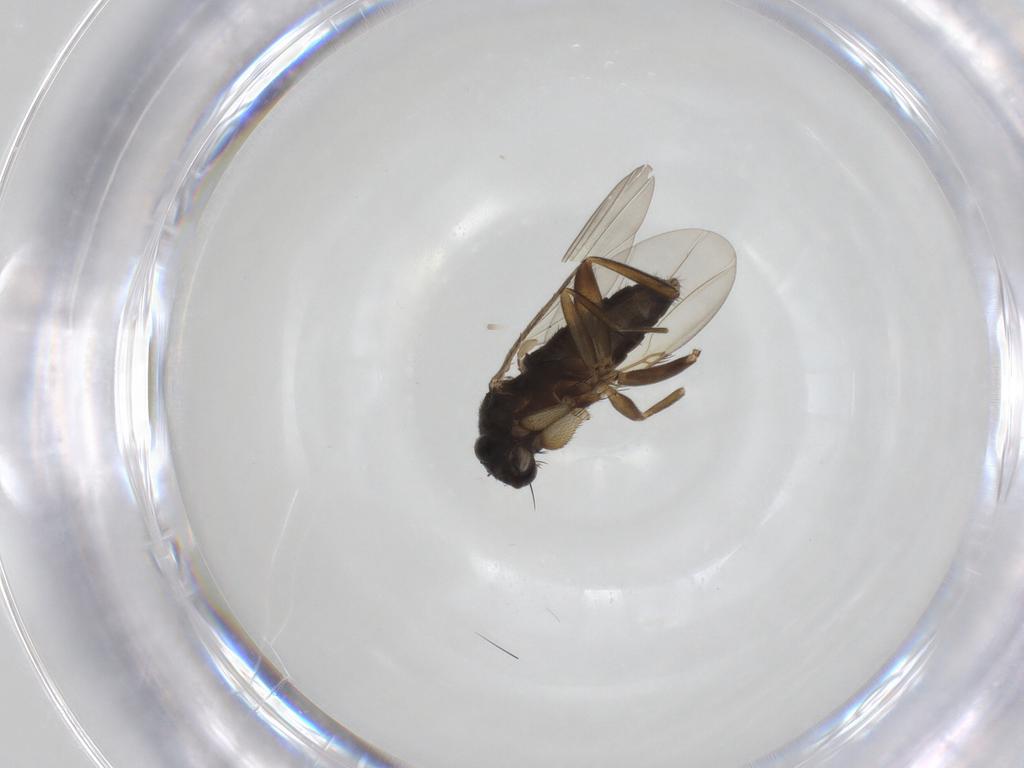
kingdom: Animalia
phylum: Arthropoda
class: Insecta
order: Diptera
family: Phoridae
